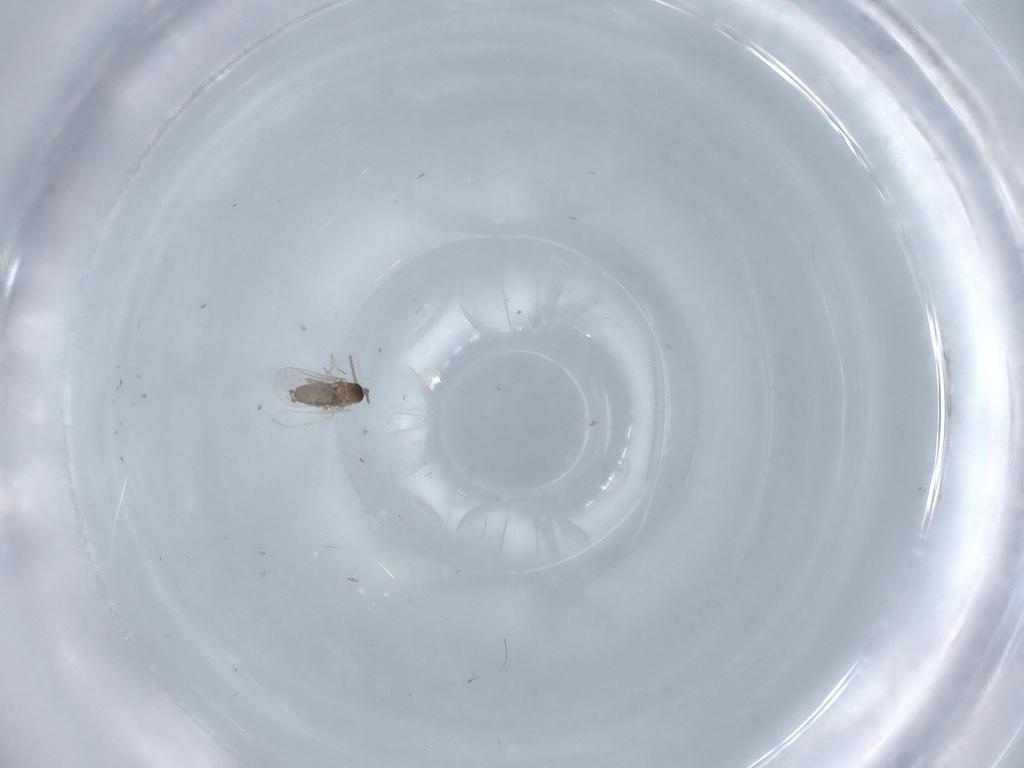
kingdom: Animalia
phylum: Arthropoda
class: Insecta
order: Diptera
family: Cecidomyiidae
